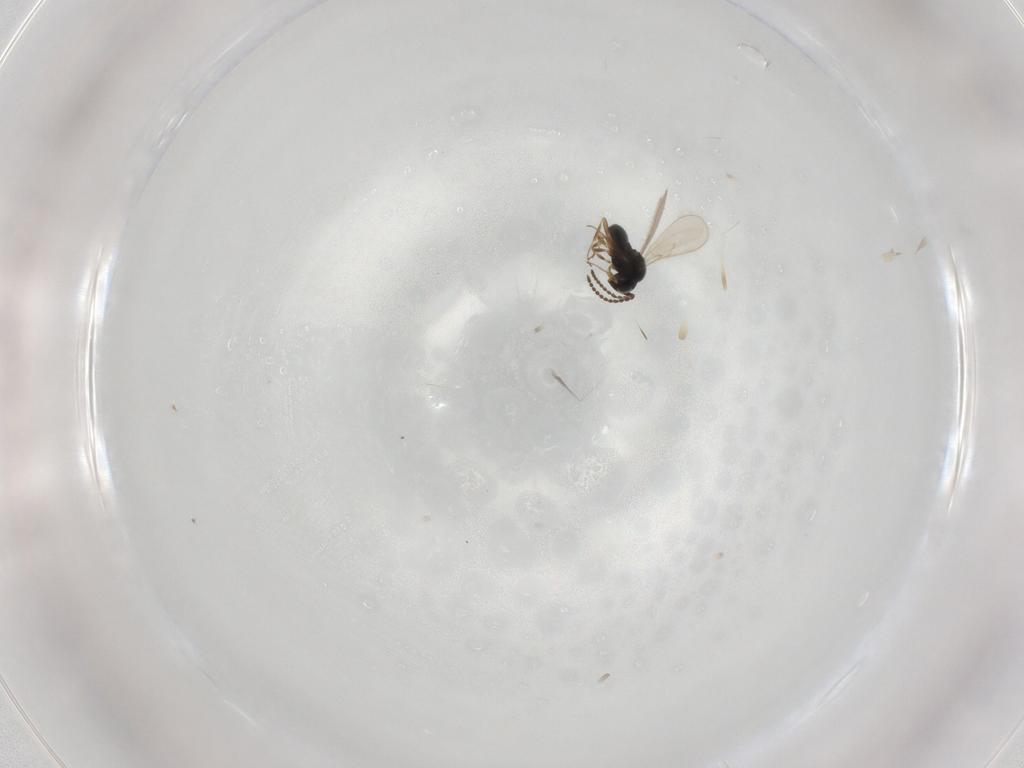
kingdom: Animalia
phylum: Arthropoda
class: Insecta
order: Hymenoptera
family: Scelionidae
